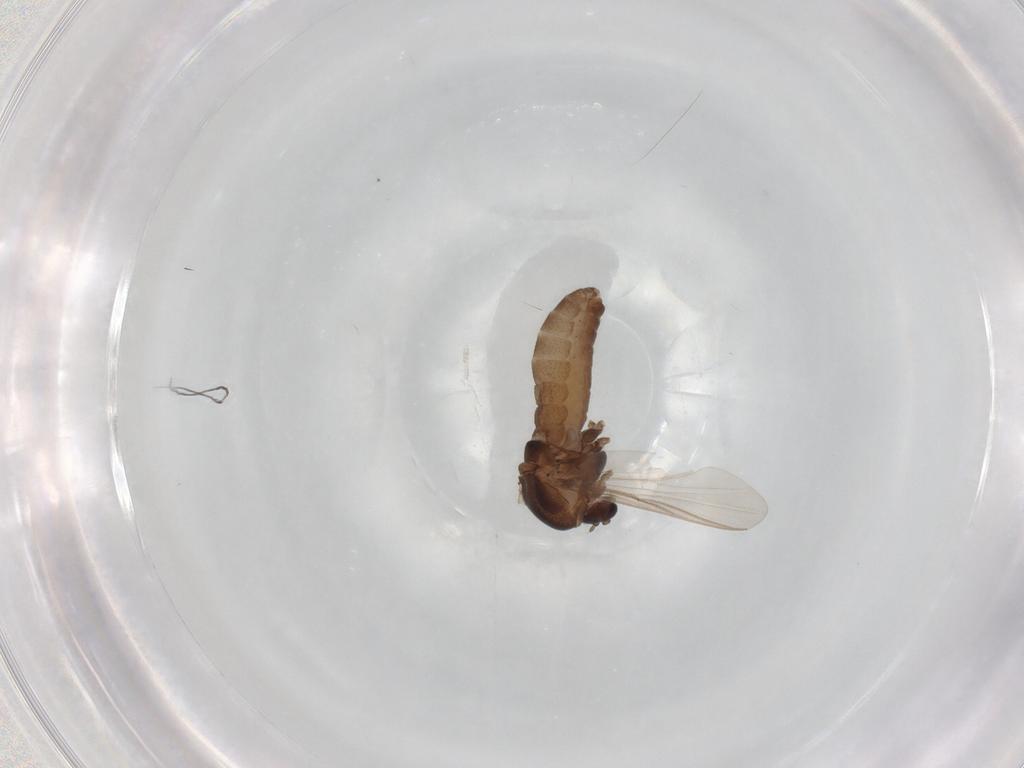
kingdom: Animalia
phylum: Arthropoda
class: Insecta
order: Diptera
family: Chironomidae
